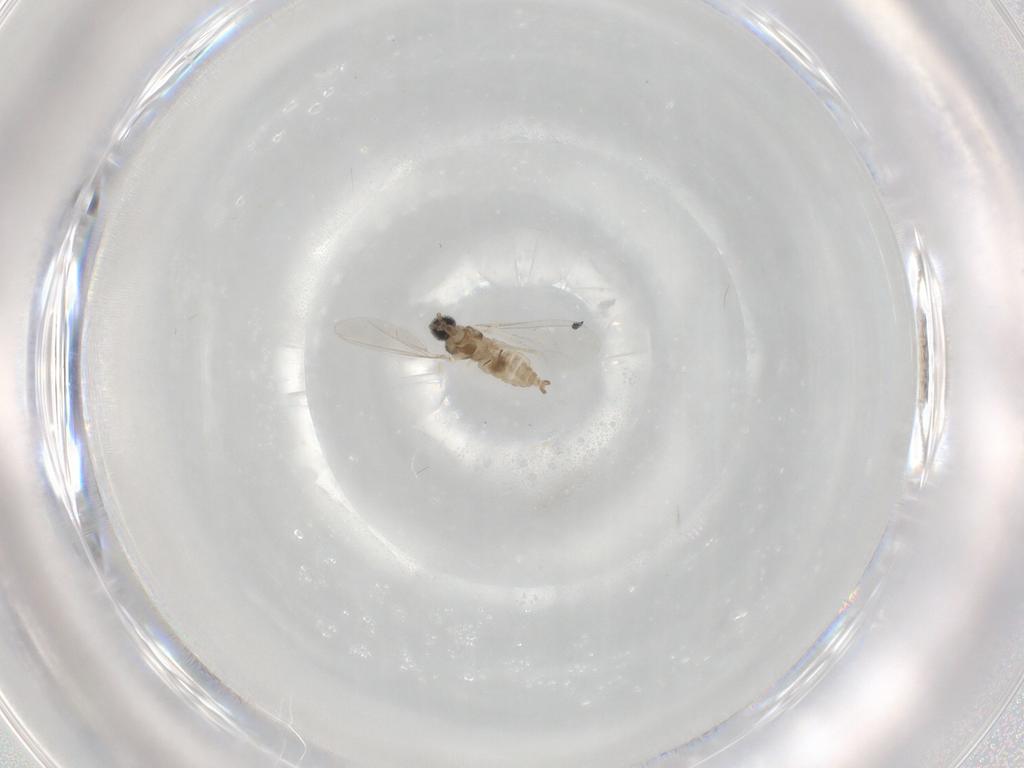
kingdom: Animalia
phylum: Arthropoda
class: Insecta
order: Diptera
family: Cecidomyiidae
